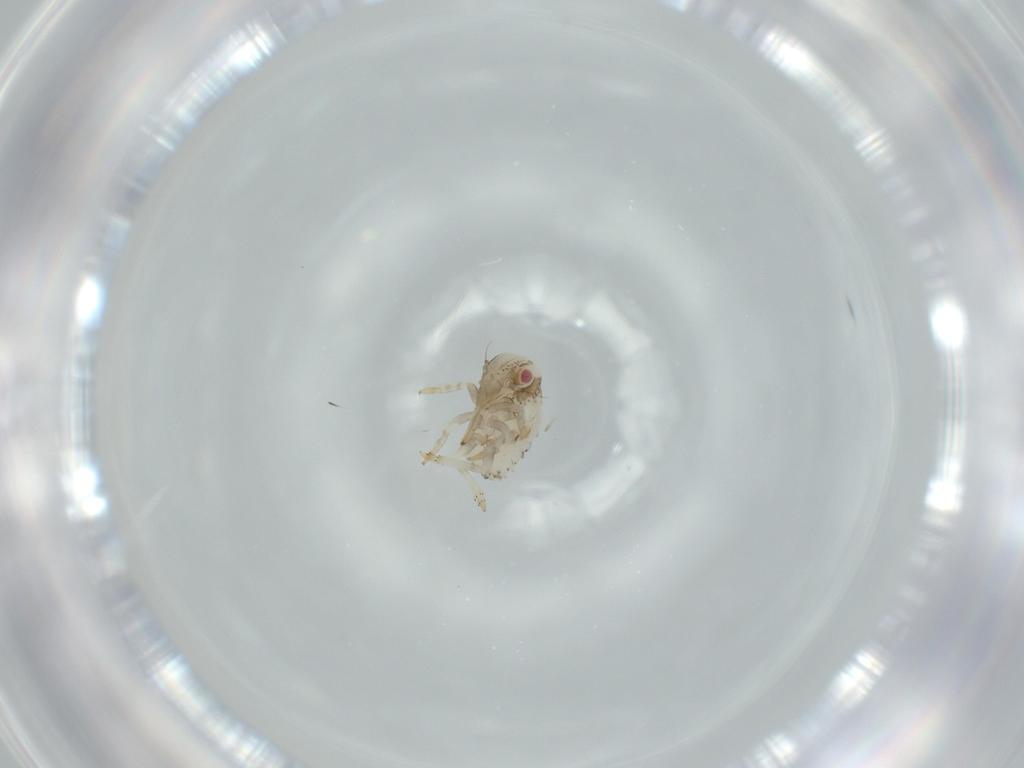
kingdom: Animalia
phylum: Arthropoda
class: Insecta
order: Hemiptera
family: Acanaloniidae
